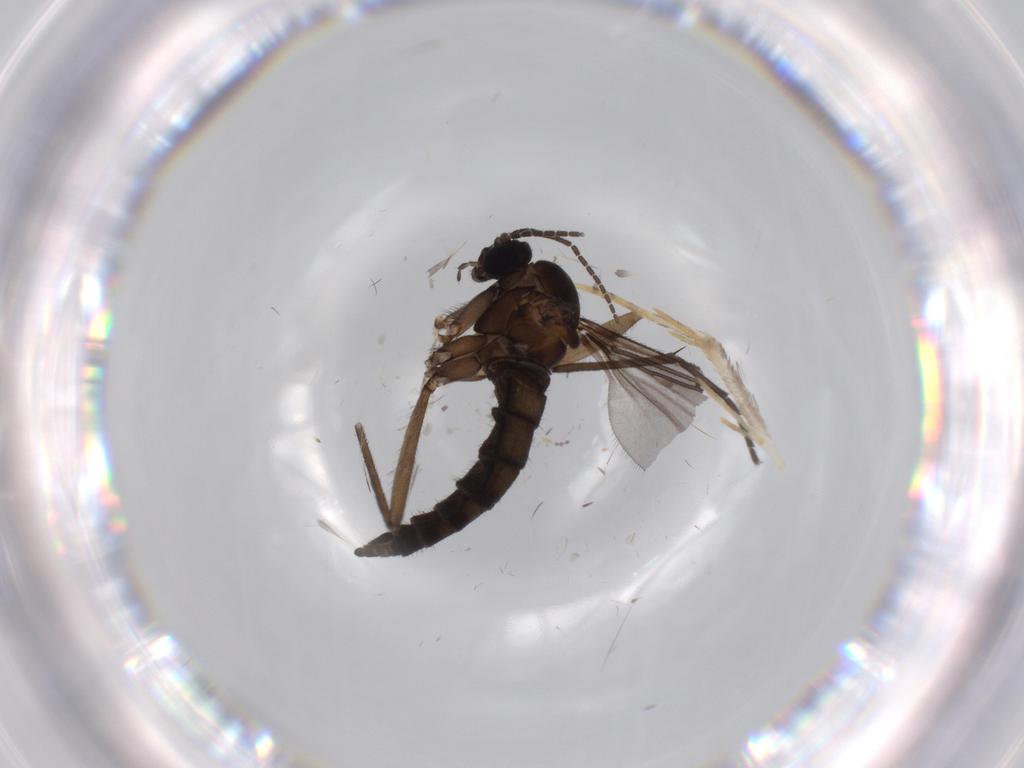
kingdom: Animalia
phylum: Arthropoda
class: Insecta
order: Diptera
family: Sciaridae
